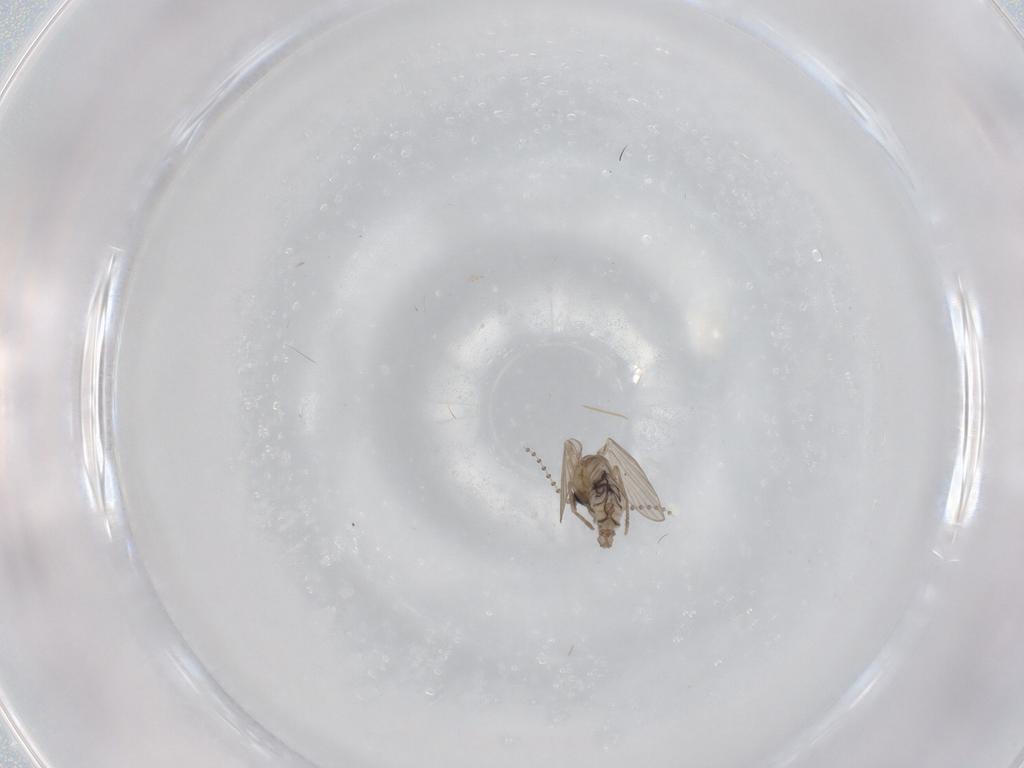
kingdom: Animalia
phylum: Arthropoda
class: Insecta
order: Diptera
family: Psychodidae
